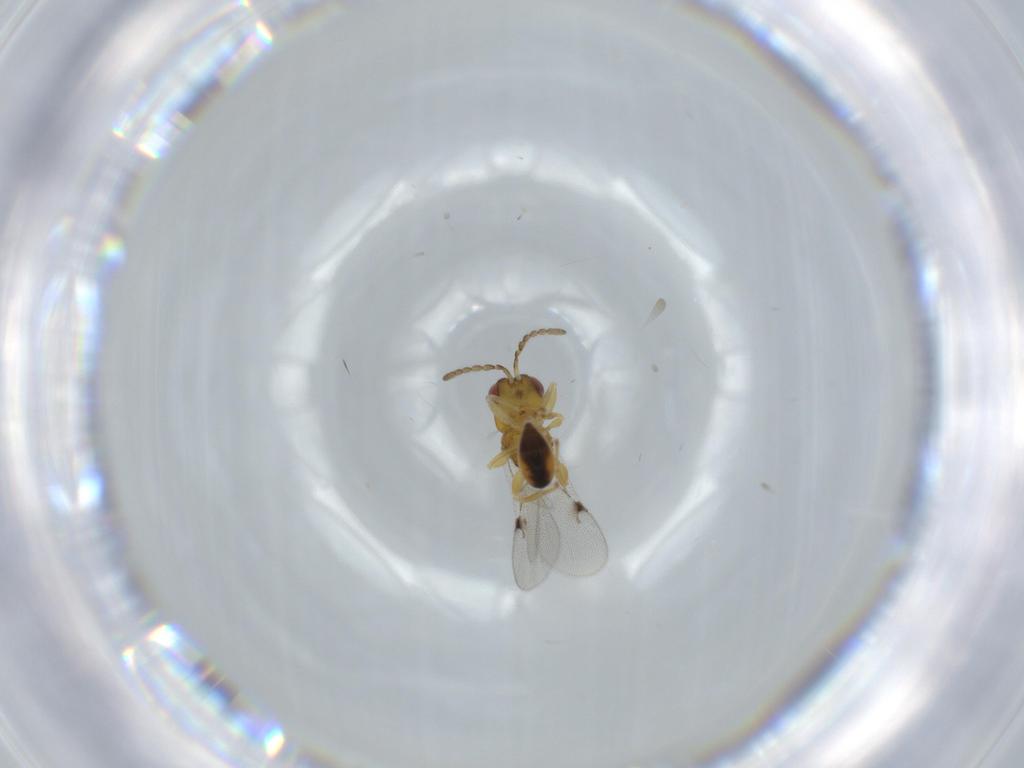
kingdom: Animalia
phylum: Arthropoda
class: Insecta
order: Hymenoptera
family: Eurytomidae
